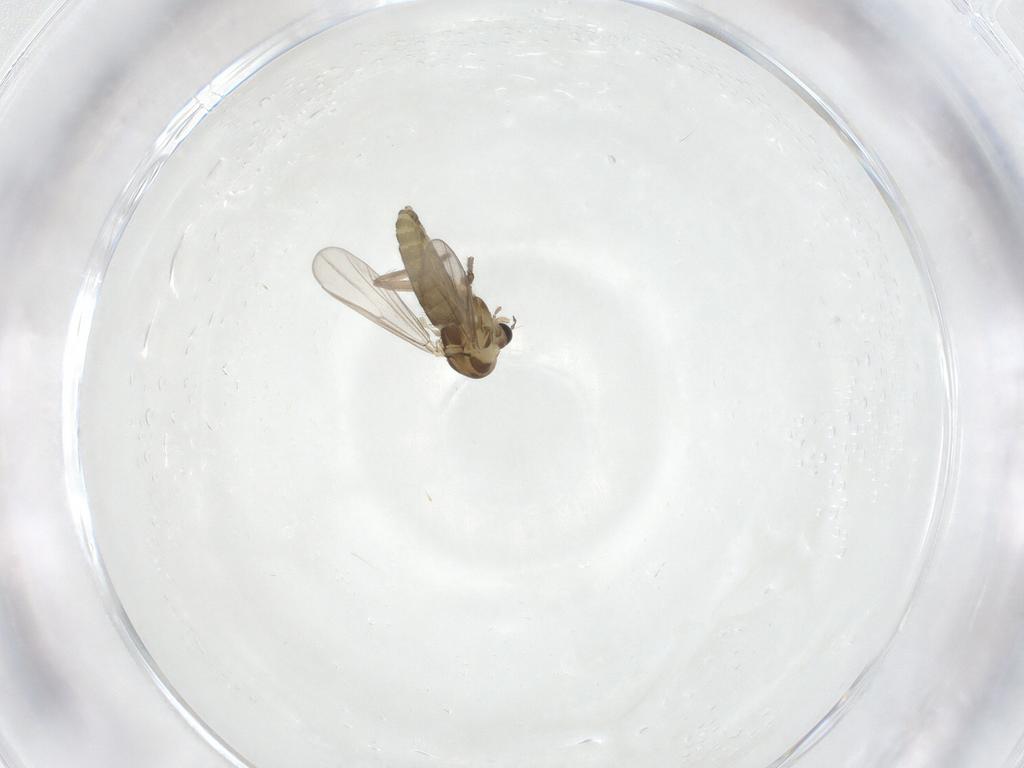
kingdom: Animalia
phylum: Arthropoda
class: Insecta
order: Diptera
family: Chironomidae
